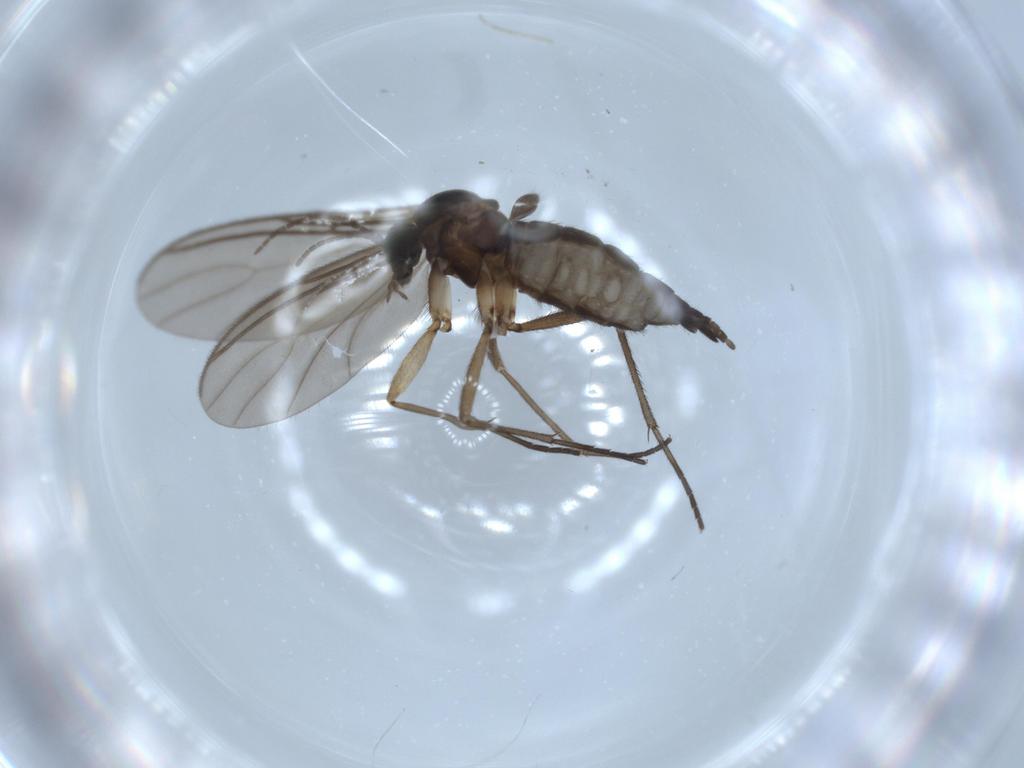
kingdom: Animalia
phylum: Arthropoda
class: Insecta
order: Diptera
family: Sciaridae
